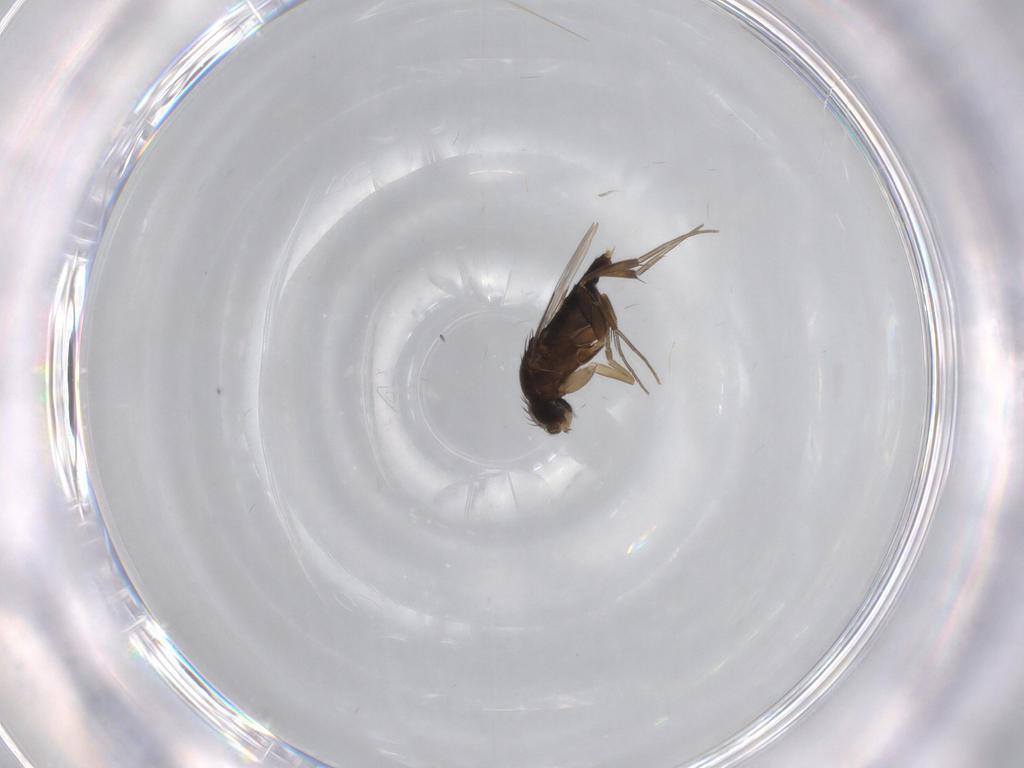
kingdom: Animalia
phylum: Arthropoda
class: Insecta
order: Diptera
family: Phoridae
